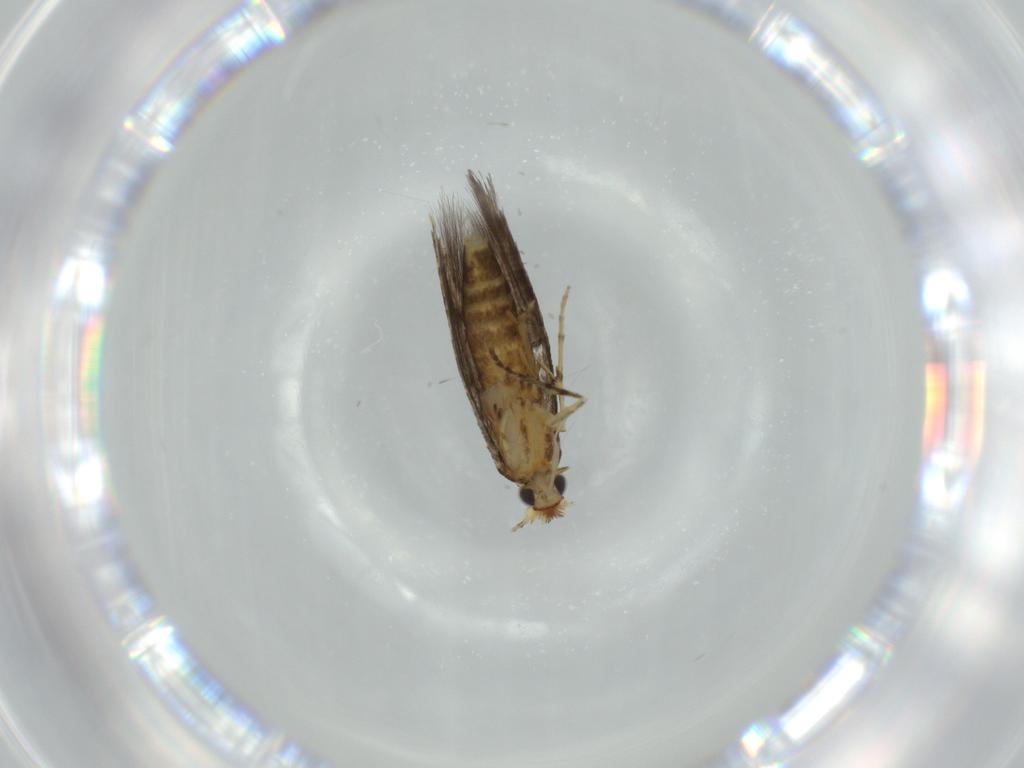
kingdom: Animalia
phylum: Arthropoda
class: Insecta
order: Lepidoptera
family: Argyresthiidae
